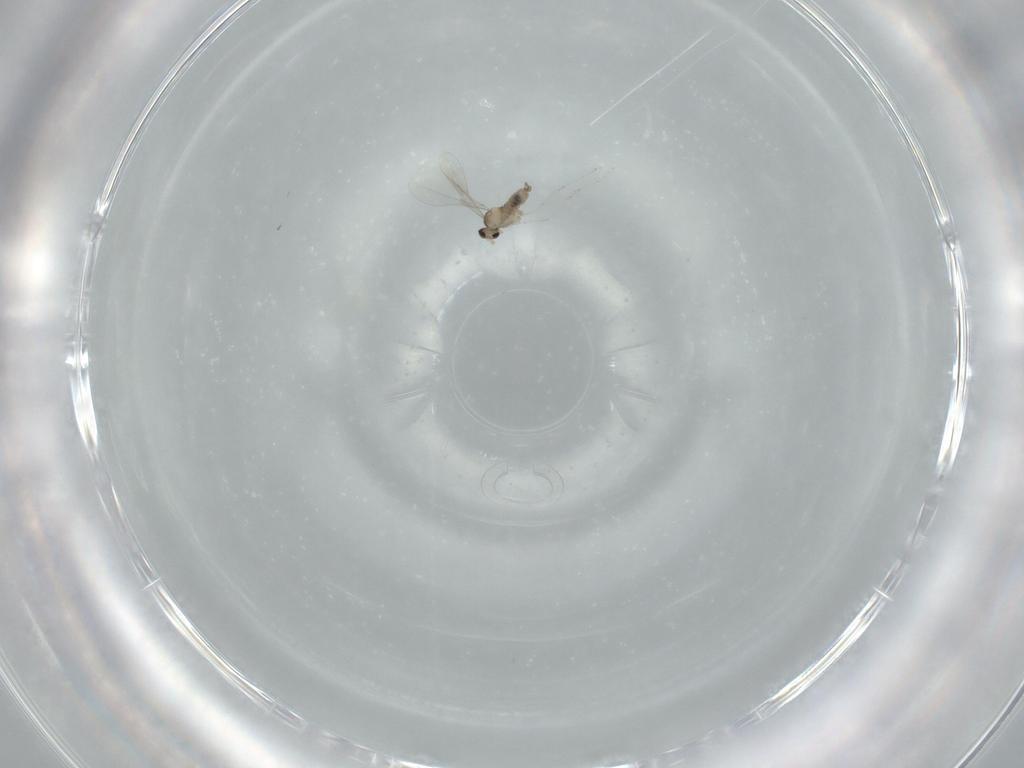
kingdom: Animalia
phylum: Arthropoda
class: Insecta
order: Diptera
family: Cecidomyiidae
